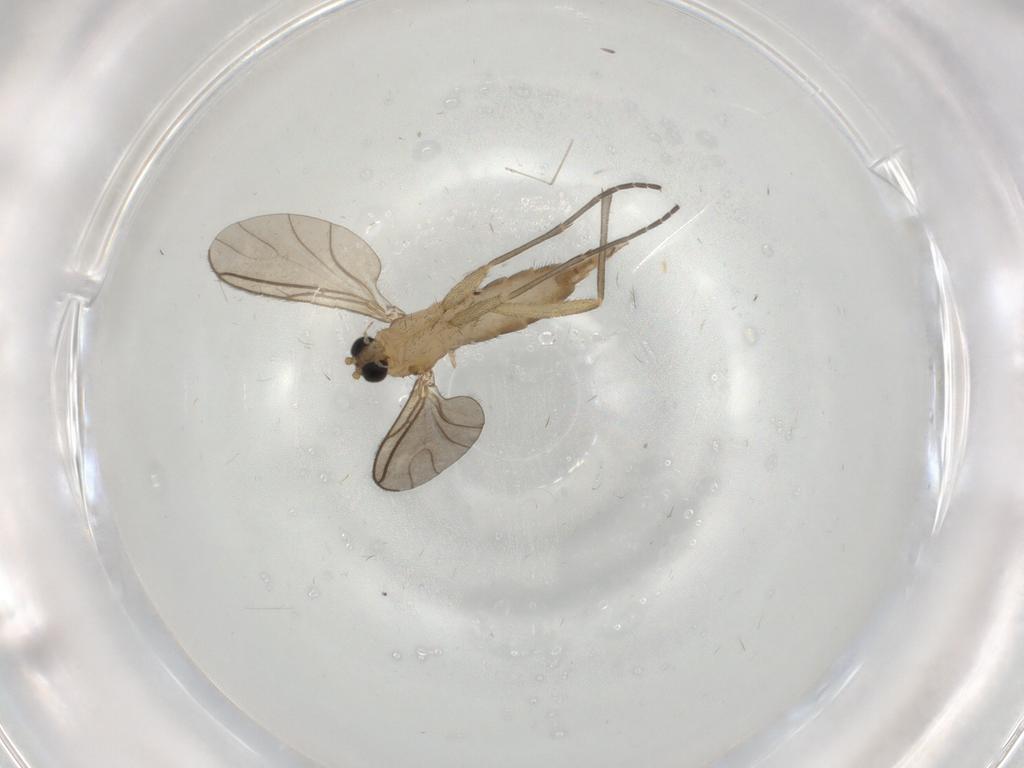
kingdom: Animalia
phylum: Arthropoda
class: Insecta
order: Diptera
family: Sciaridae
